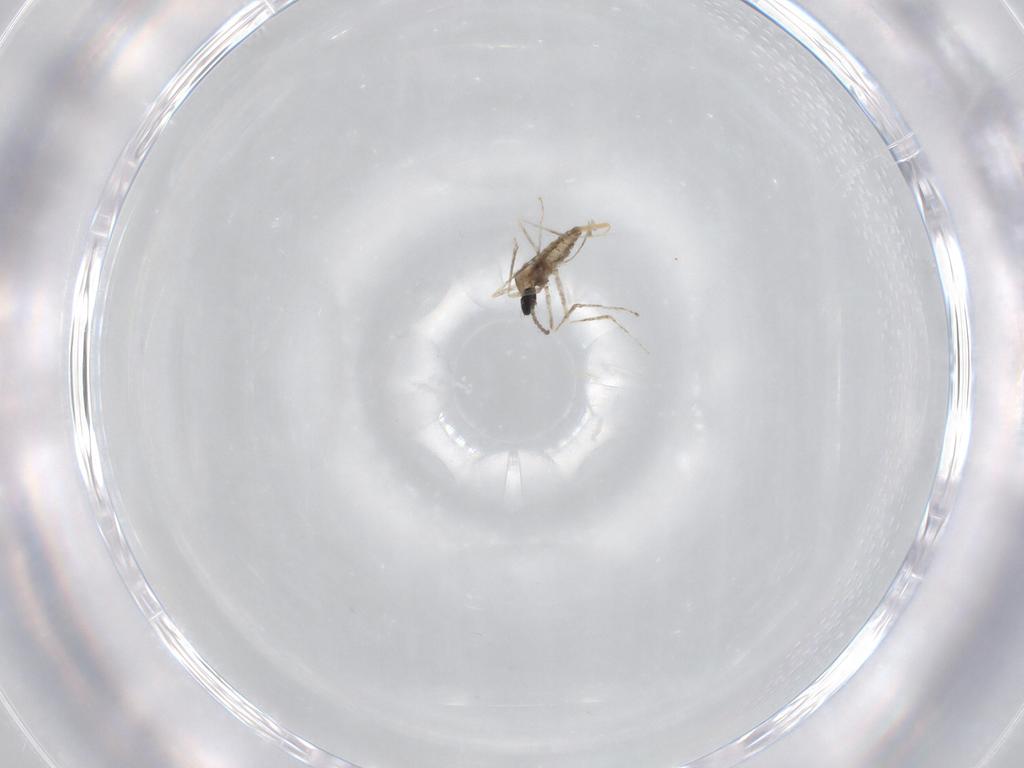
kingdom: Animalia
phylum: Arthropoda
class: Insecta
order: Diptera
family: Cecidomyiidae
